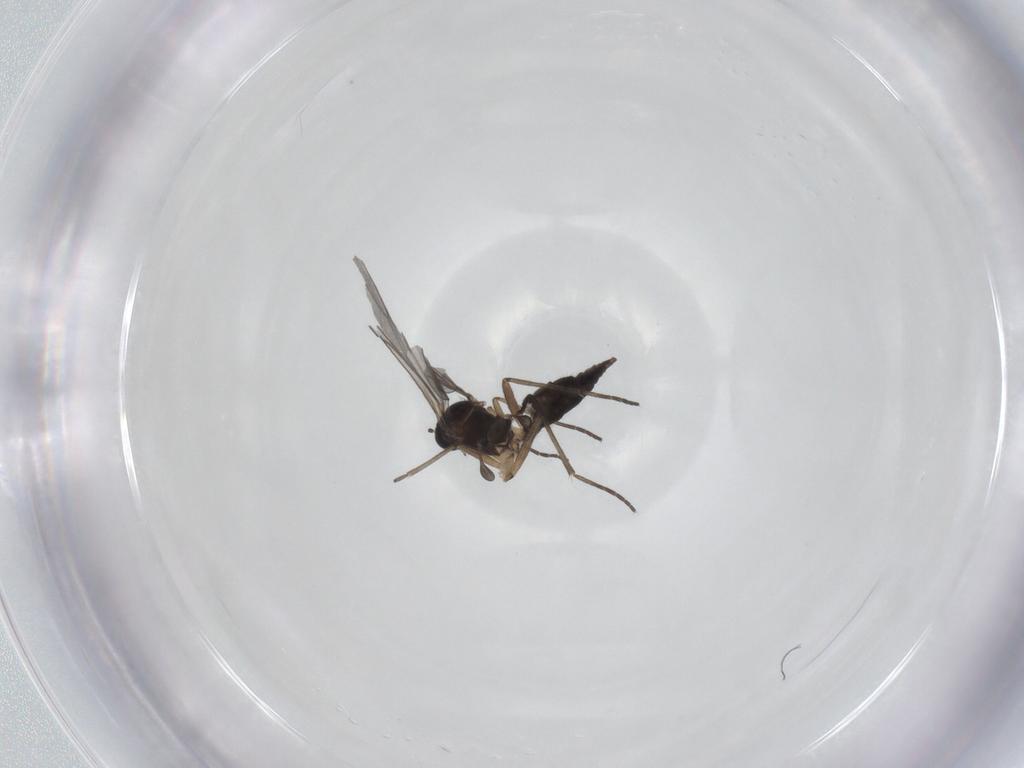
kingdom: Animalia
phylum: Arthropoda
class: Insecta
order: Diptera
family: Sciaridae
